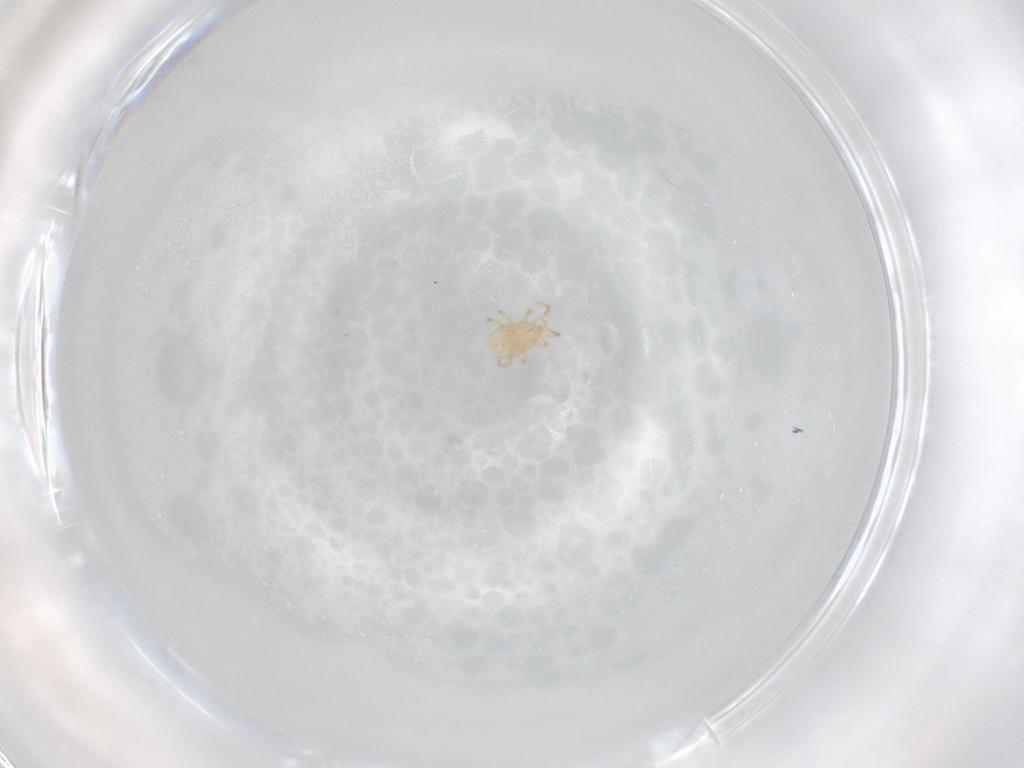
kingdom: Animalia
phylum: Arthropoda
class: Arachnida
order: Mesostigmata
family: Ascidae
